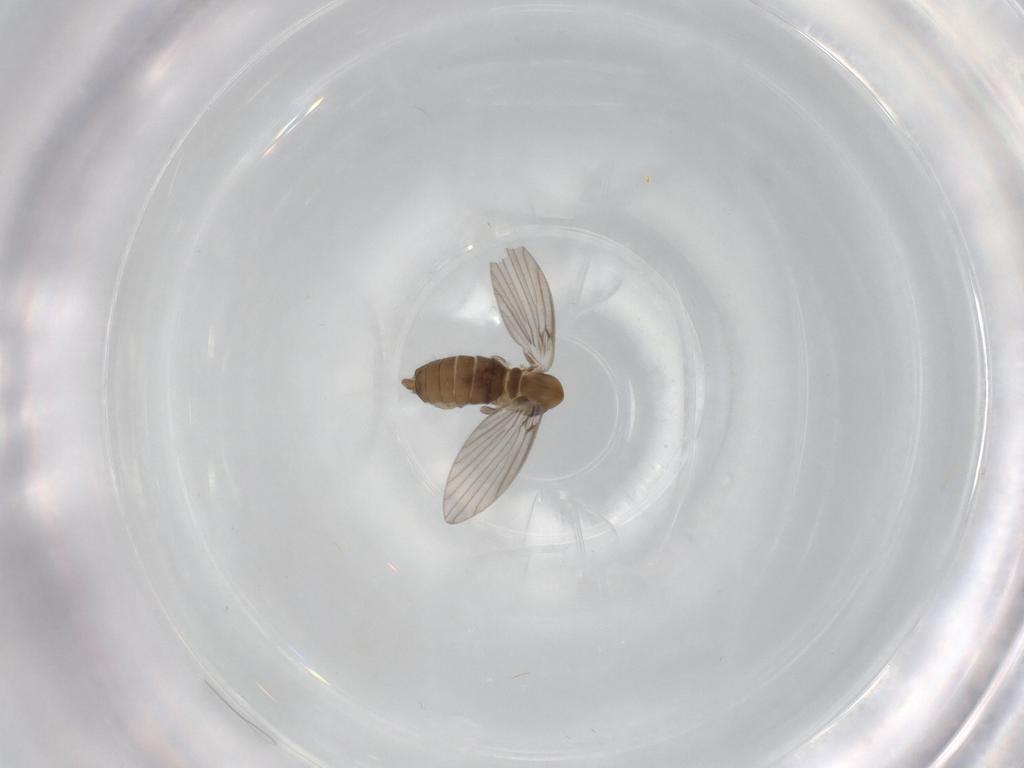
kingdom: Animalia
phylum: Arthropoda
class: Insecta
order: Diptera
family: Psychodidae
